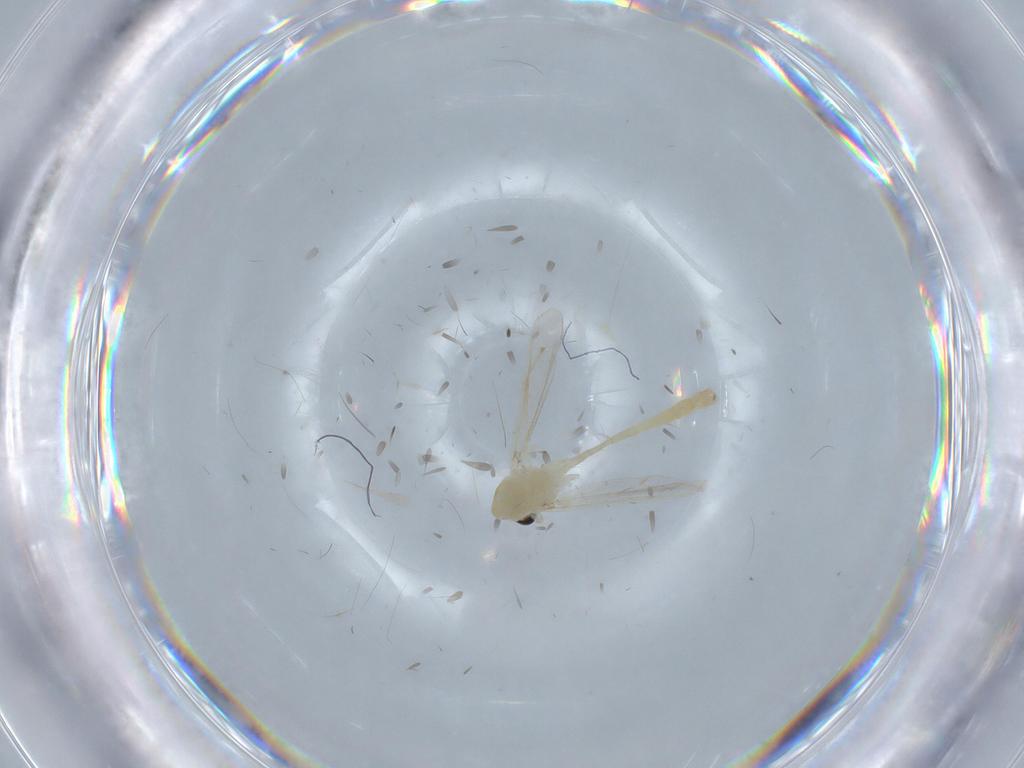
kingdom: Animalia
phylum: Arthropoda
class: Insecta
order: Diptera
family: Chironomidae
